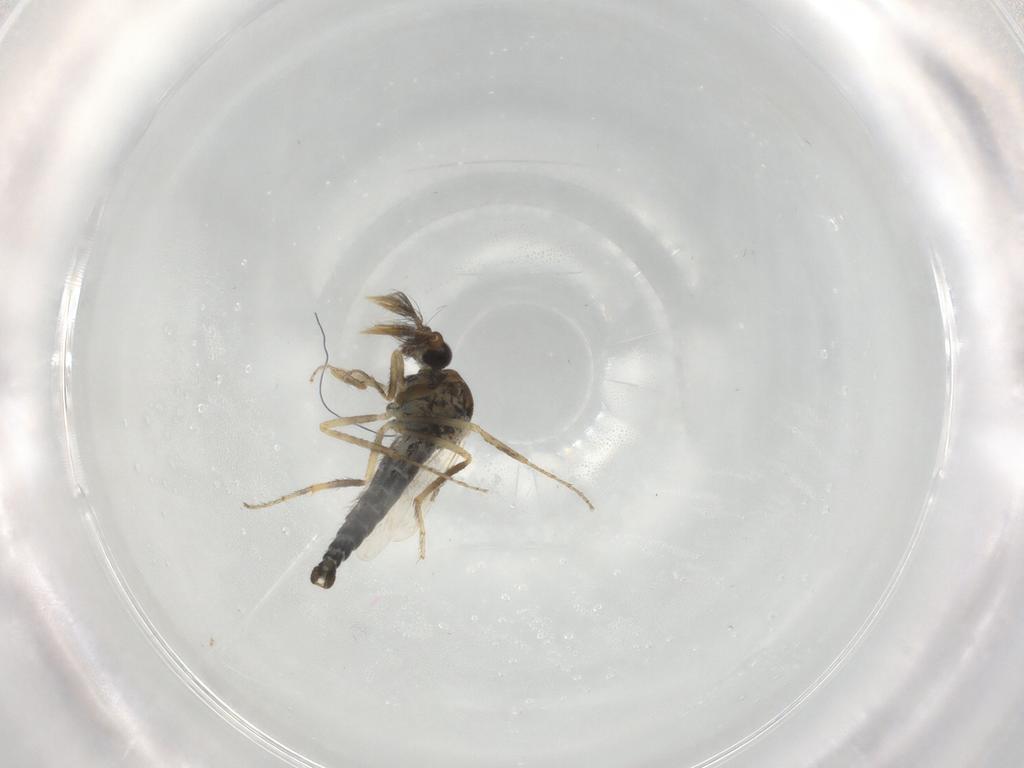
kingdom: Animalia
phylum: Arthropoda
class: Insecta
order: Diptera
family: Ceratopogonidae
